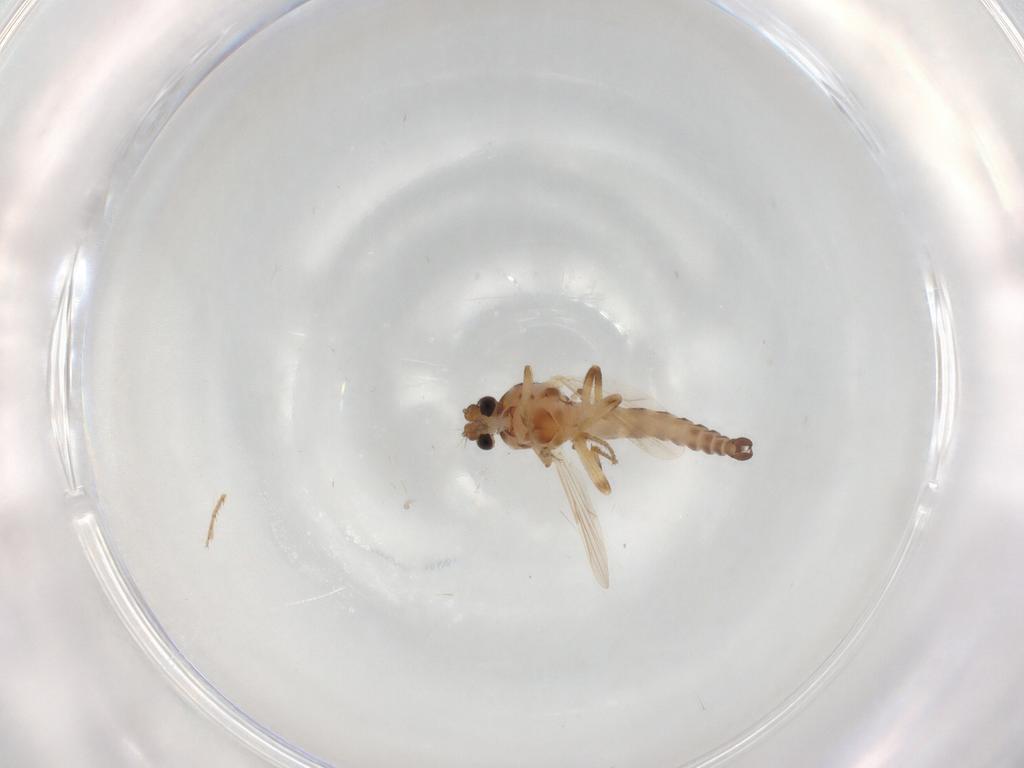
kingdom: Animalia
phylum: Arthropoda
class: Insecta
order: Diptera
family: Ceratopogonidae
